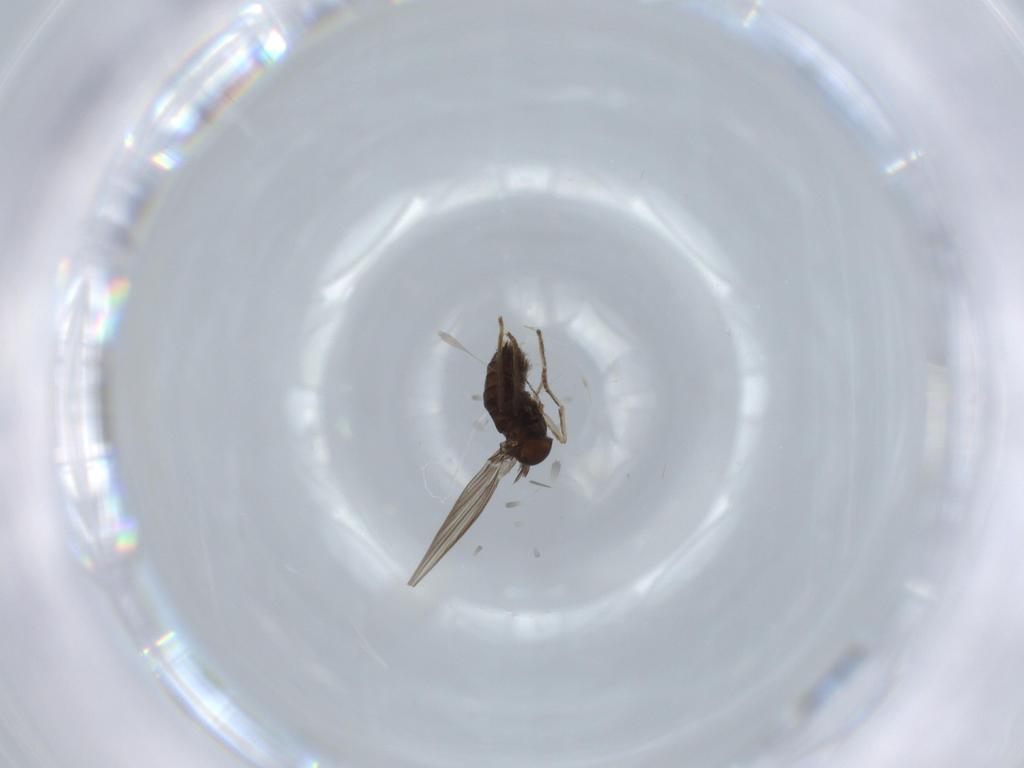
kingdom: Animalia
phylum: Arthropoda
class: Insecta
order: Diptera
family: Psychodidae
